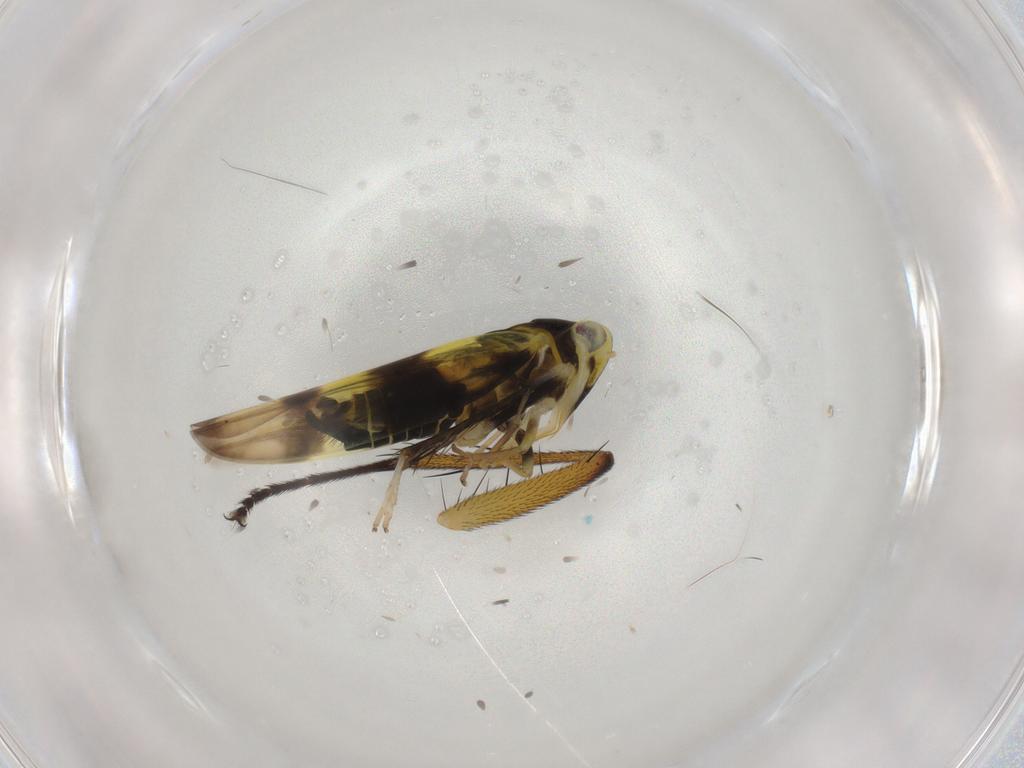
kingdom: Animalia
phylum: Arthropoda
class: Insecta
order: Hemiptera
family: Cicadellidae
